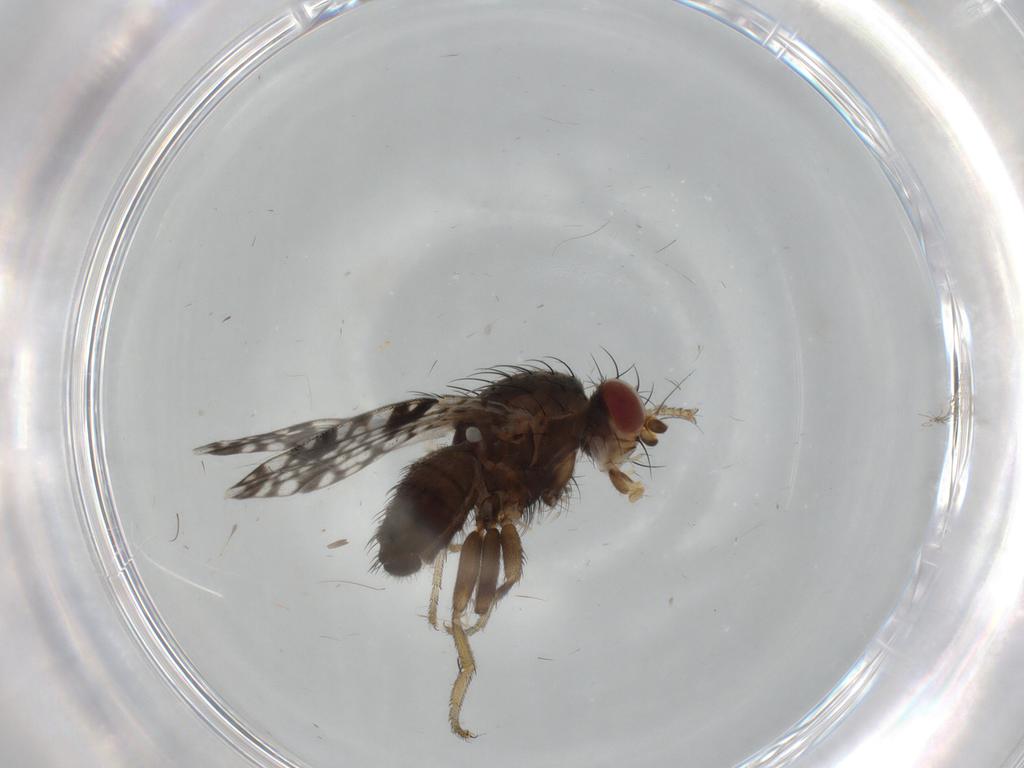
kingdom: Animalia
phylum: Arthropoda
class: Insecta
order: Diptera
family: Tephritidae
